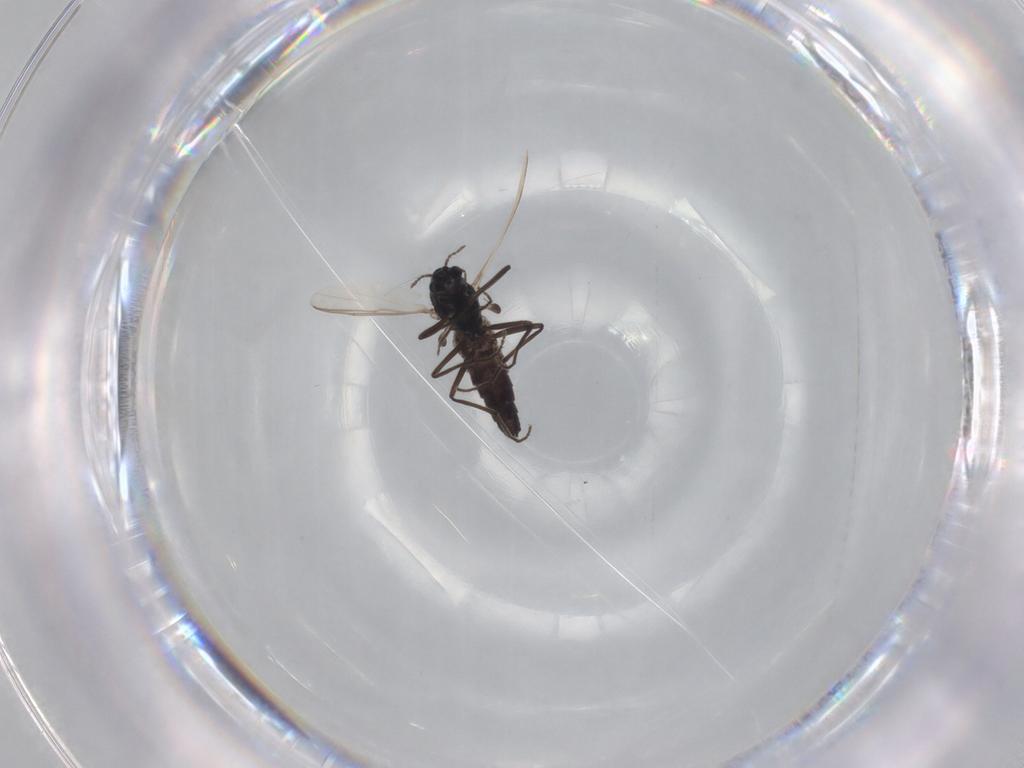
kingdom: Animalia
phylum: Arthropoda
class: Insecta
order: Diptera
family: Chironomidae
